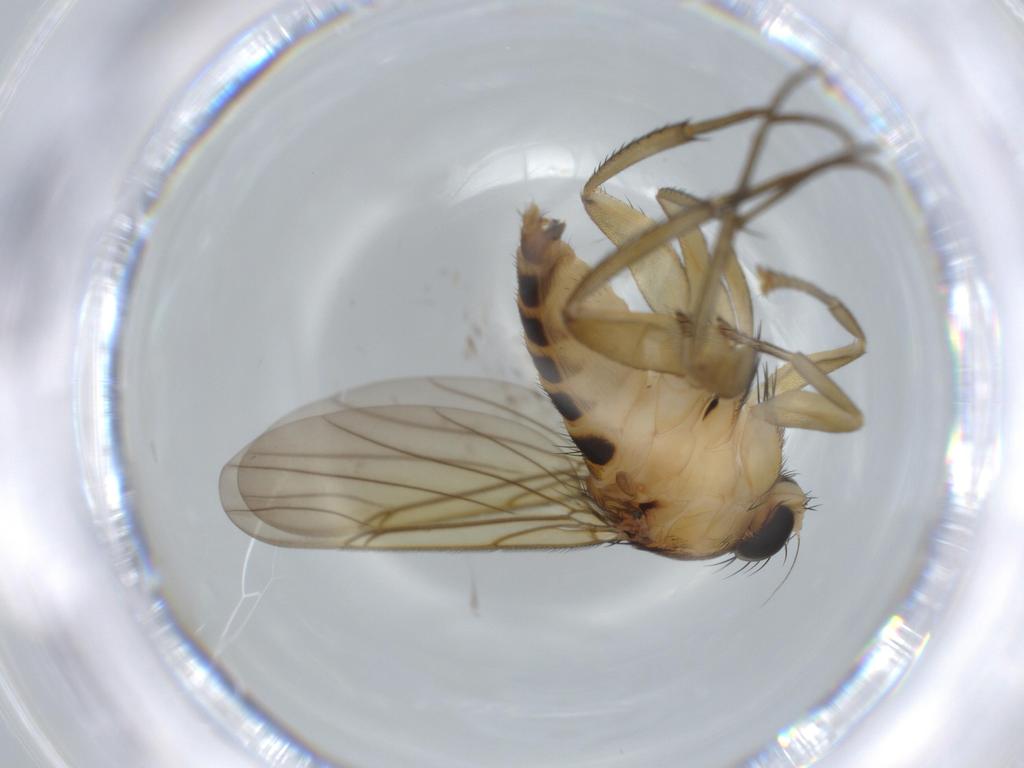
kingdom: Animalia
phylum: Arthropoda
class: Insecta
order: Diptera
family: Phoridae
